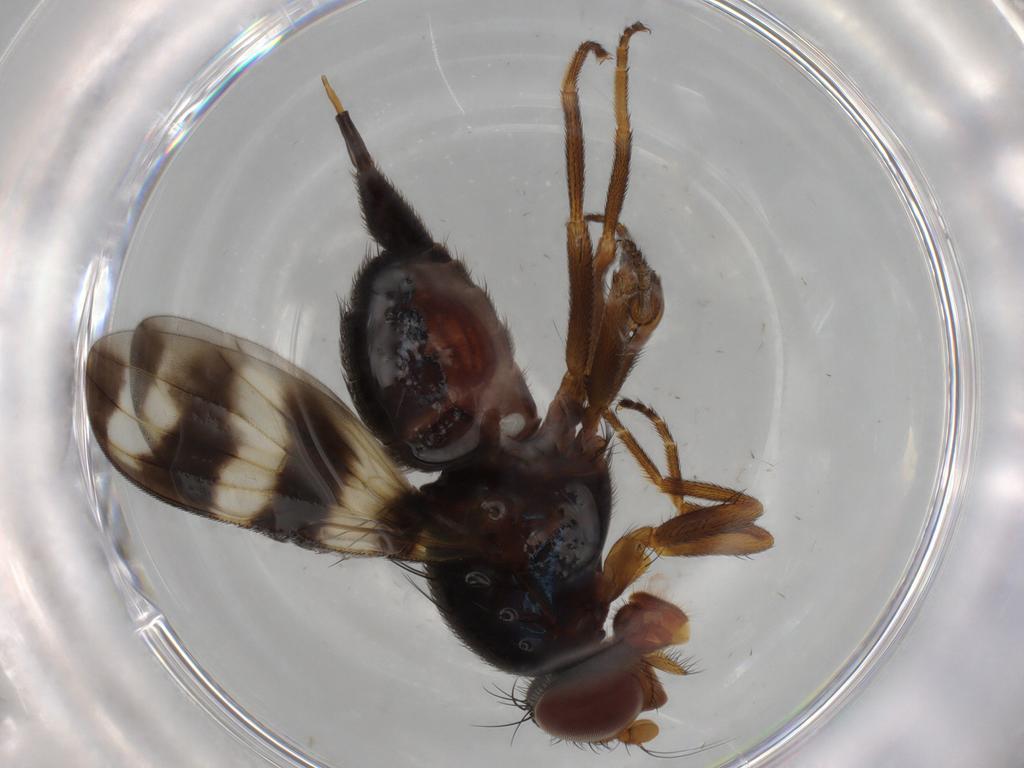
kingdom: Animalia
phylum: Arthropoda
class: Insecta
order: Diptera
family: Ulidiidae
